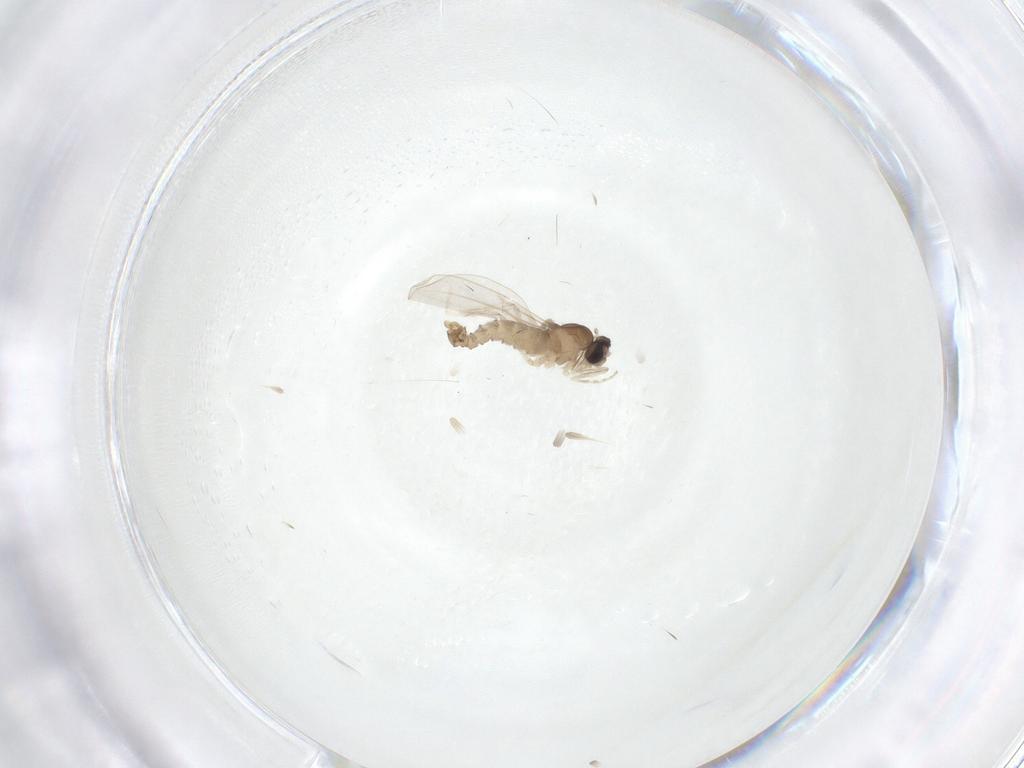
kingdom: Animalia
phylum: Arthropoda
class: Insecta
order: Diptera
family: Cecidomyiidae
